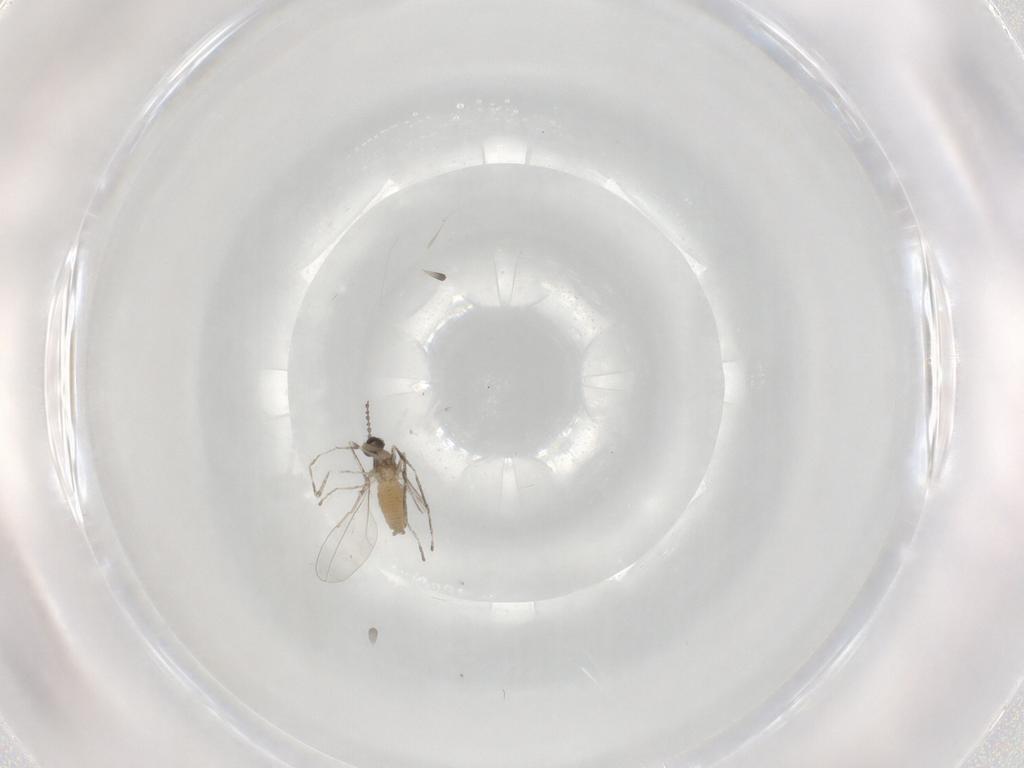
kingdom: Animalia
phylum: Arthropoda
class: Insecta
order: Diptera
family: Cecidomyiidae
